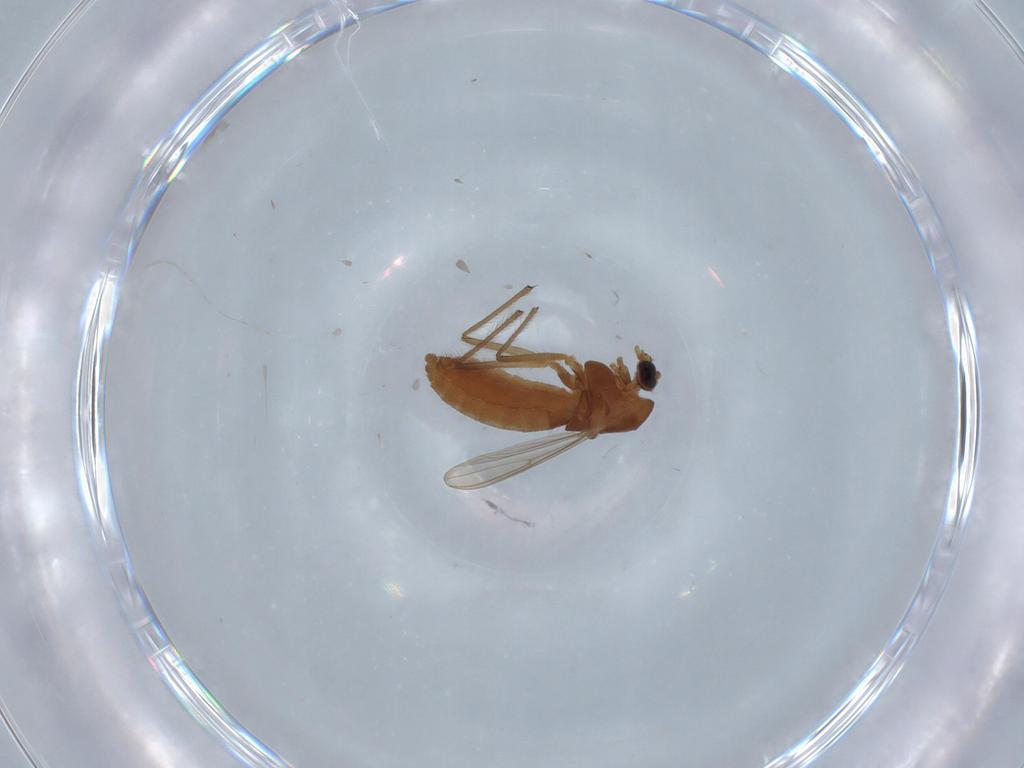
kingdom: Animalia
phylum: Arthropoda
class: Insecta
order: Diptera
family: Chironomidae
